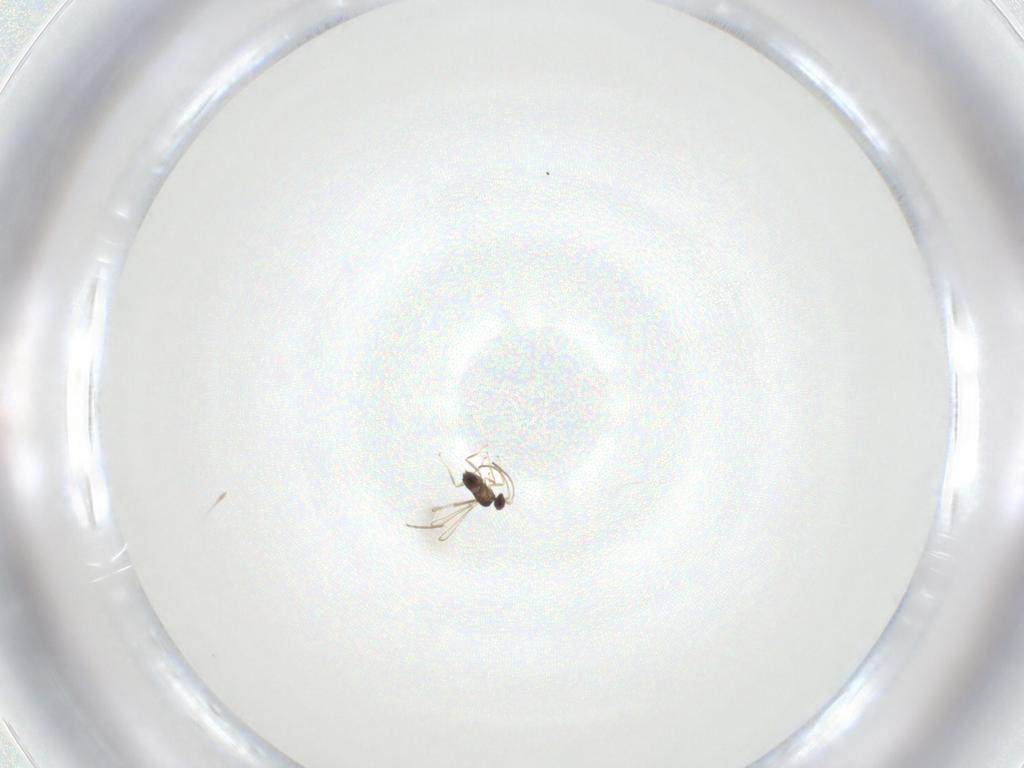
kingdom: Animalia
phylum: Arthropoda
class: Insecta
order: Hymenoptera
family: Aphelinidae
